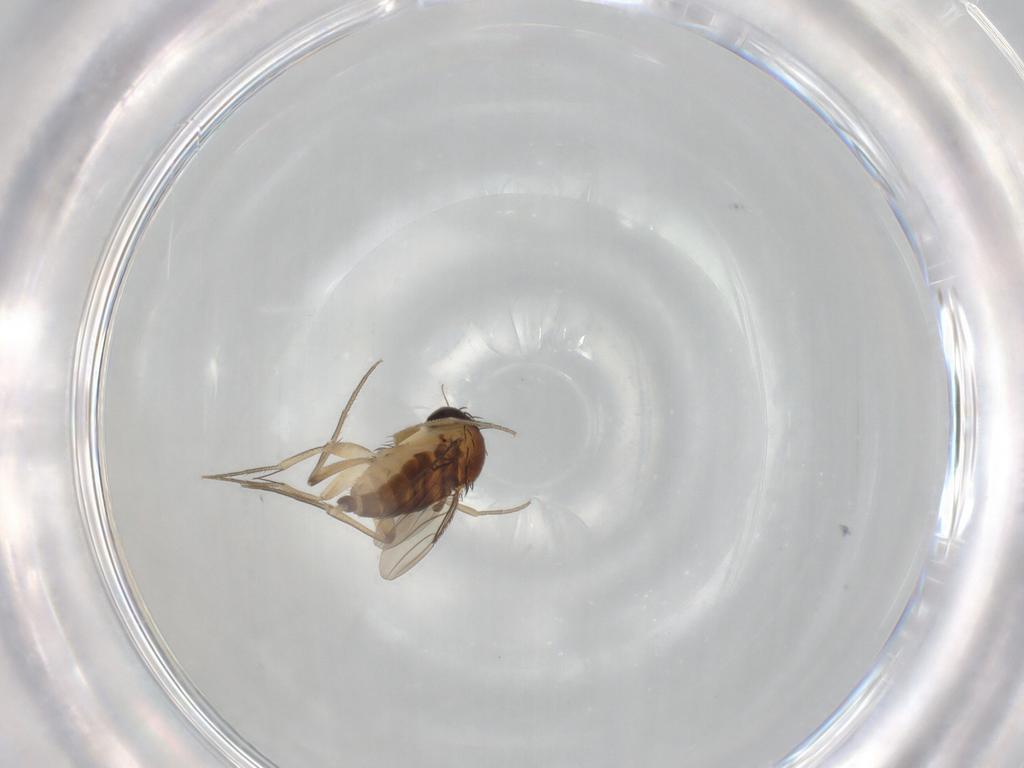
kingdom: Animalia
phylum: Arthropoda
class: Insecta
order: Diptera
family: Phoridae
